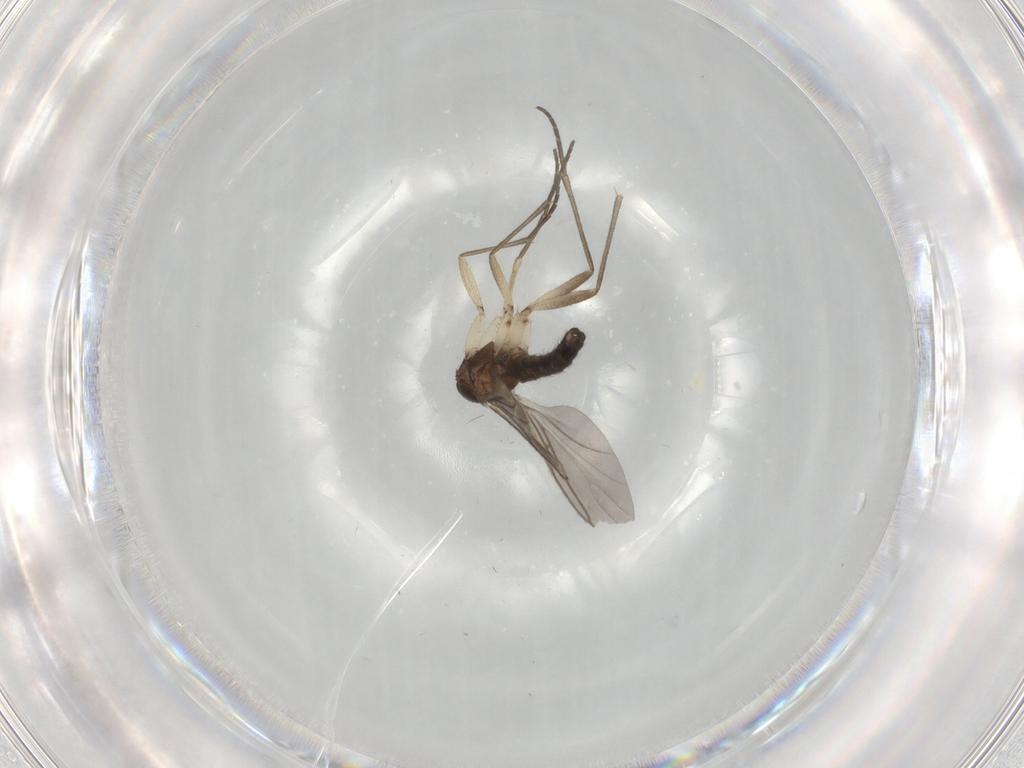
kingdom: Animalia
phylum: Arthropoda
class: Insecta
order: Diptera
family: Sciaridae
